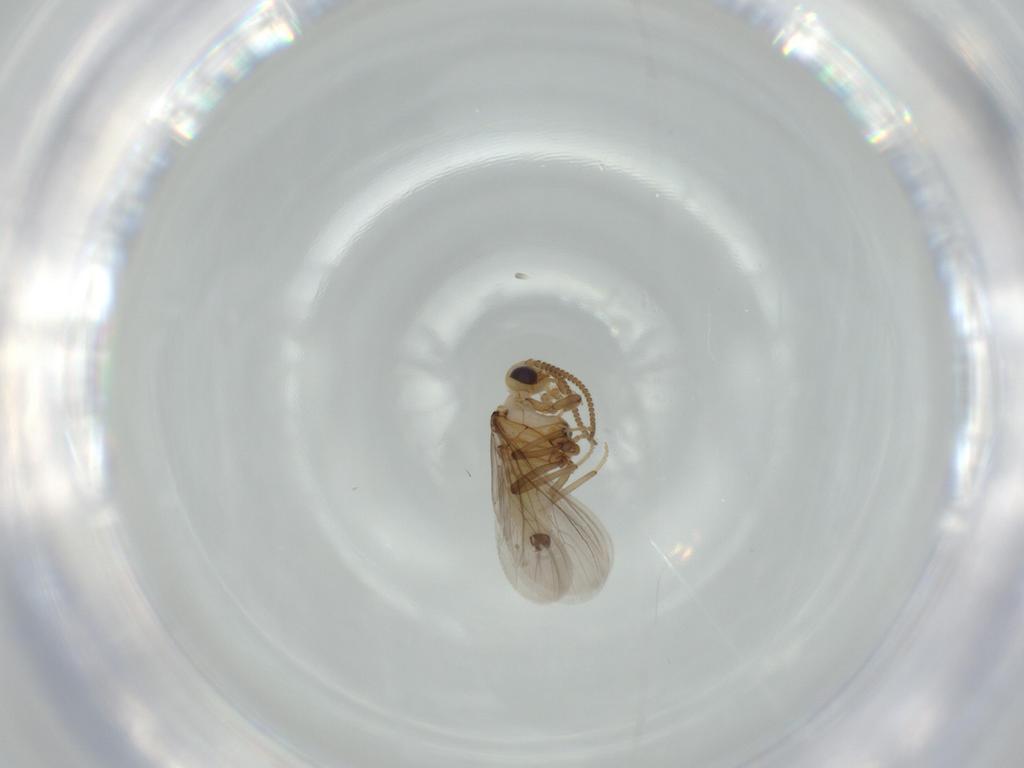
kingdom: Animalia
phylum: Arthropoda
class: Insecta
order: Neuroptera
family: Coniopterygidae
